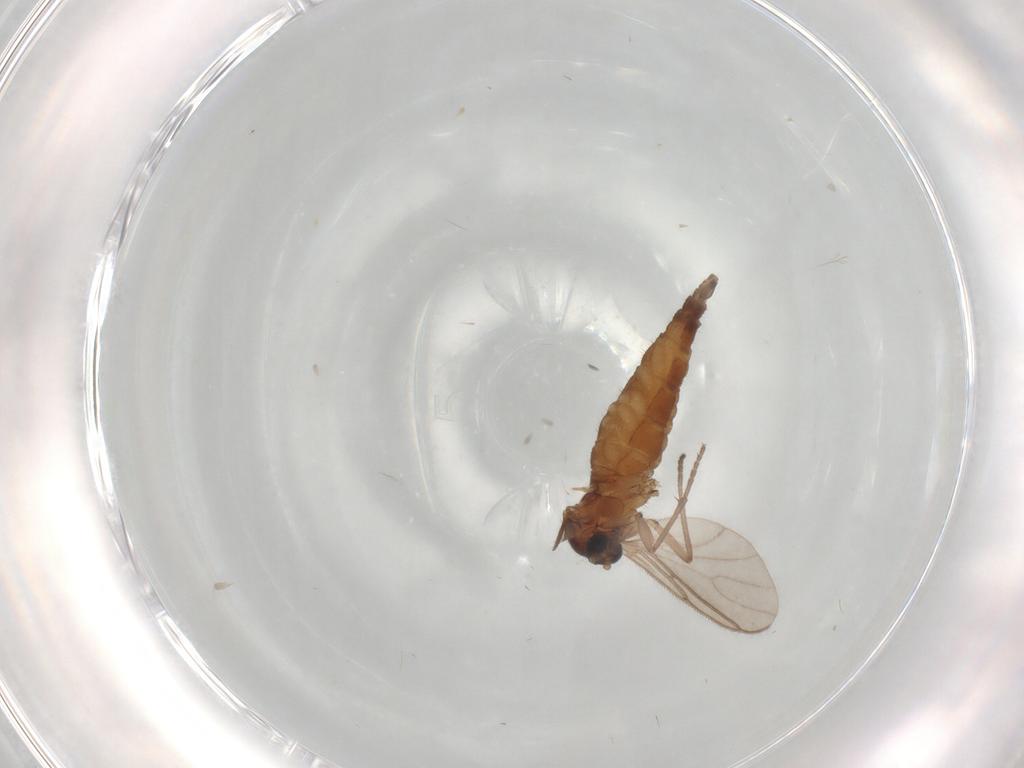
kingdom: Animalia
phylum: Arthropoda
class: Insecta
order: Diptera
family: Sciaridae
